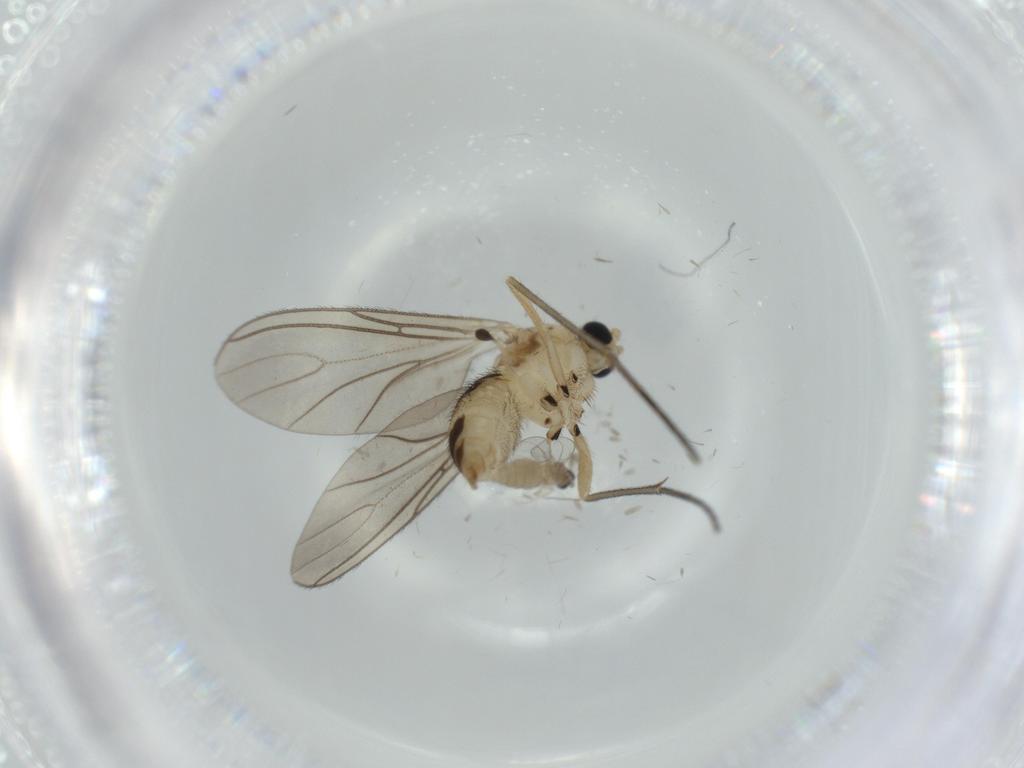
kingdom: Animalia
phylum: Arthropoda
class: Insecta
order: Diptera
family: Sciaridae
